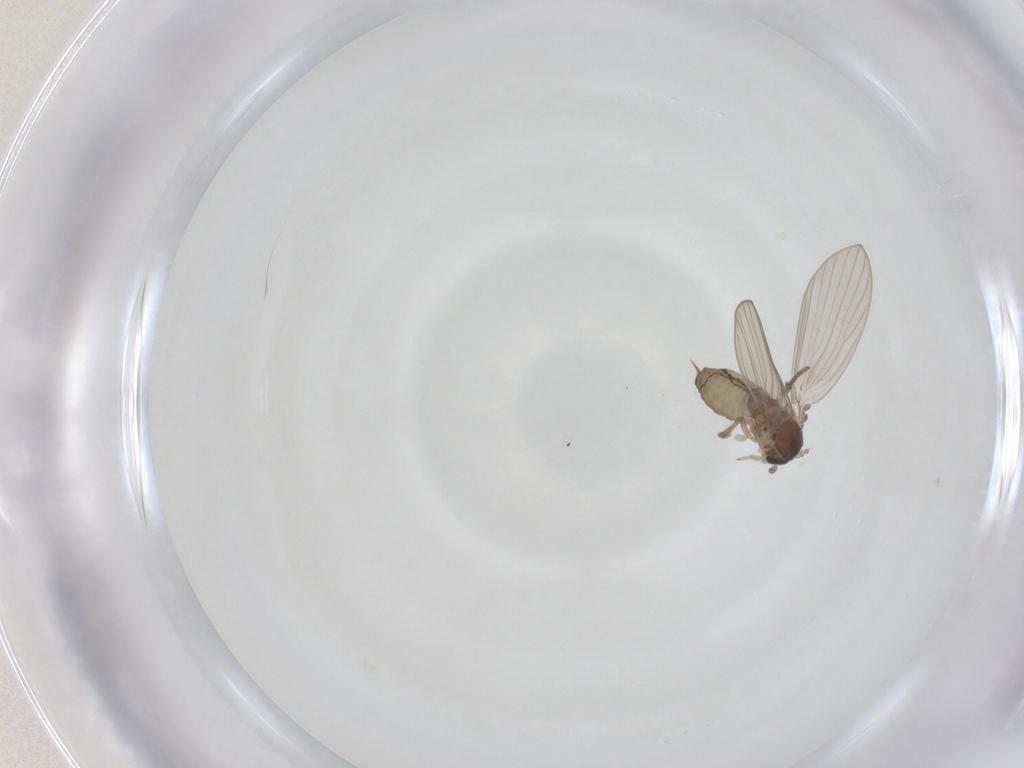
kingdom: Animalia
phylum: Arthropoda
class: Insecta
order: Diptera
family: Psychodidae
